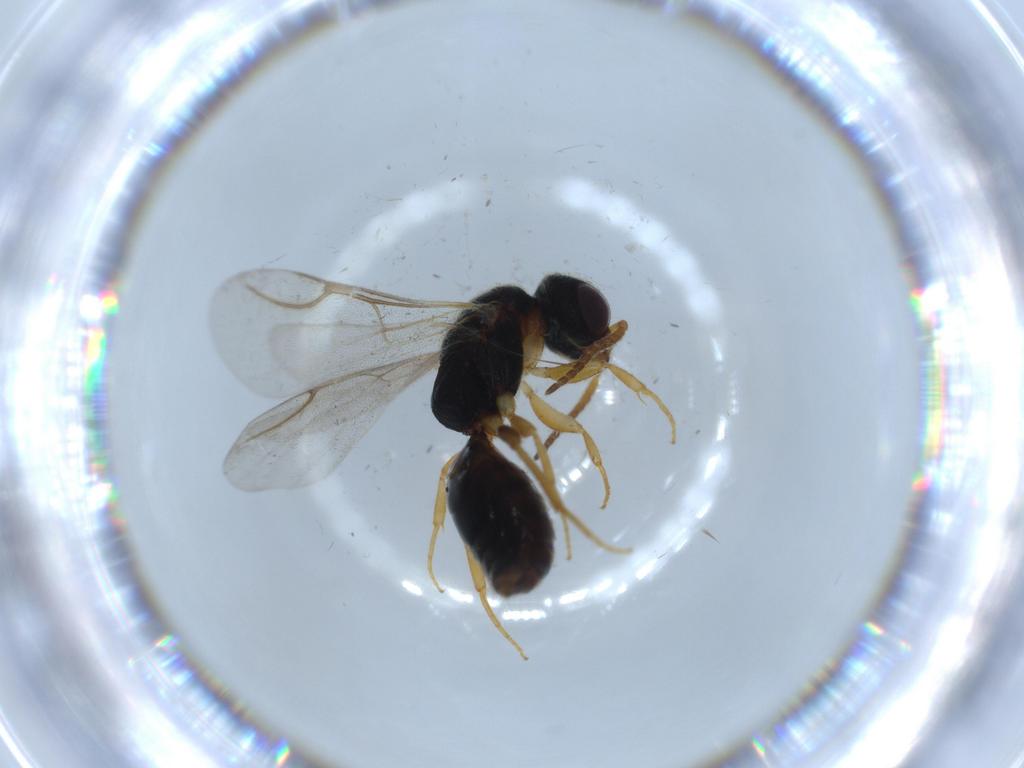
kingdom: Animalia
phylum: Arthropoda
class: Insecta
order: Hymenoptera
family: Bethylidae
